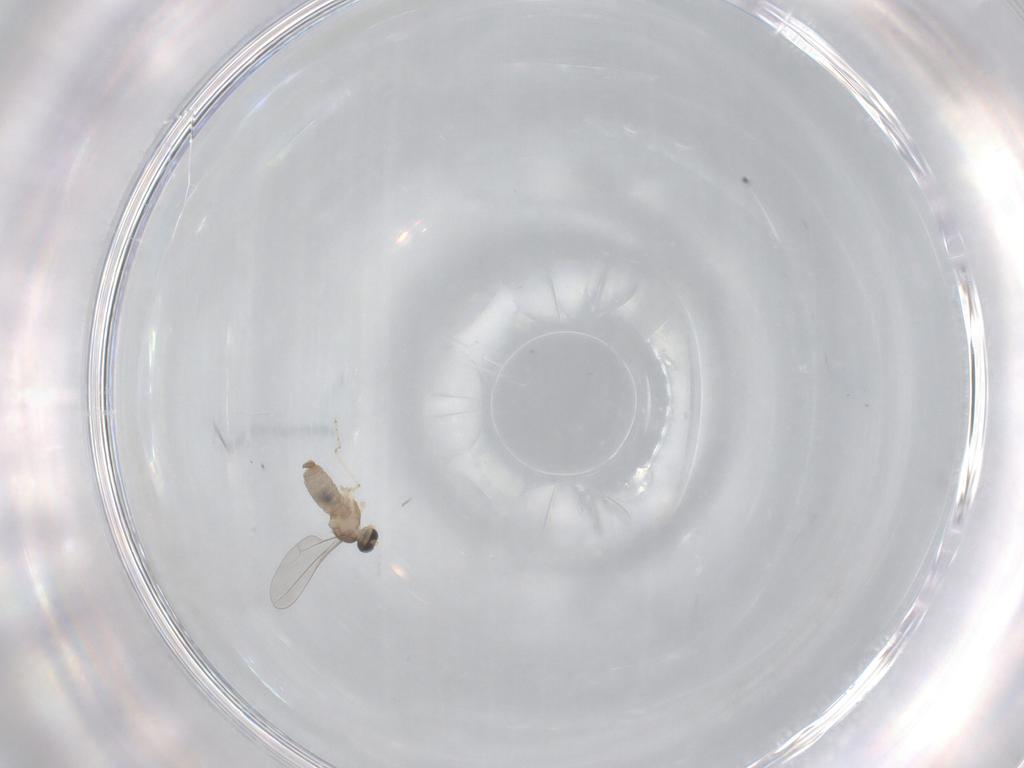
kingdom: Animalia
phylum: Arthropoda
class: Insecta
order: Diptera
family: Cecidomyiidae
